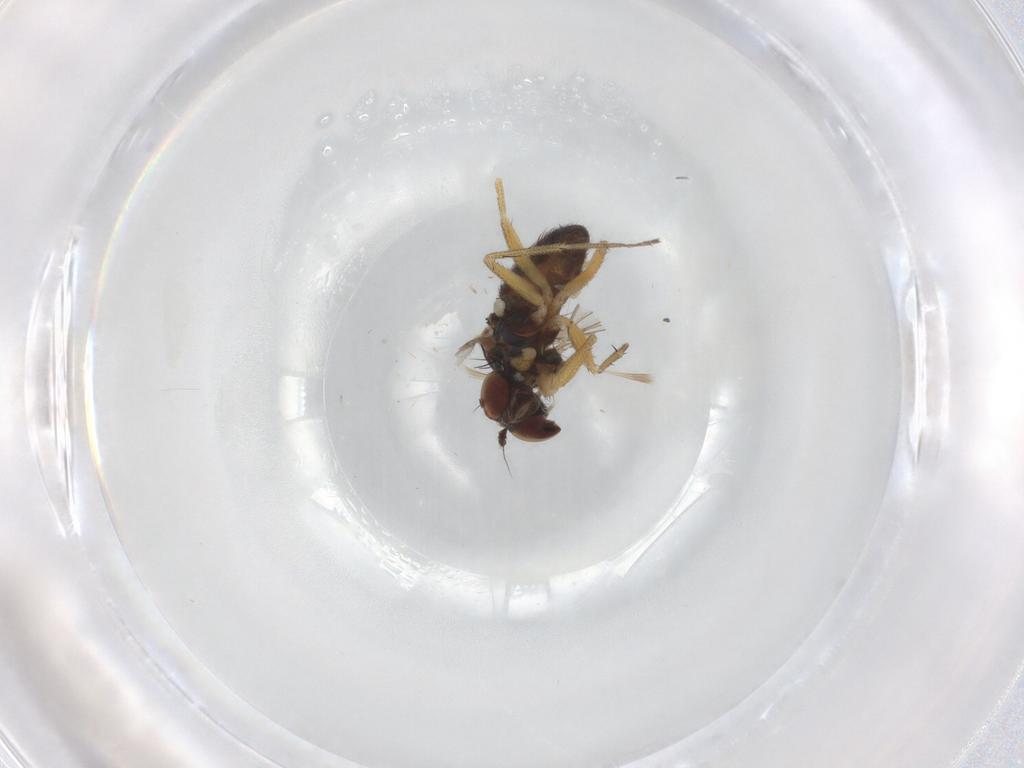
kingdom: Animalia
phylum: Arthropoda
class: Insecta
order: Diptera
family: Dolichopodidae
